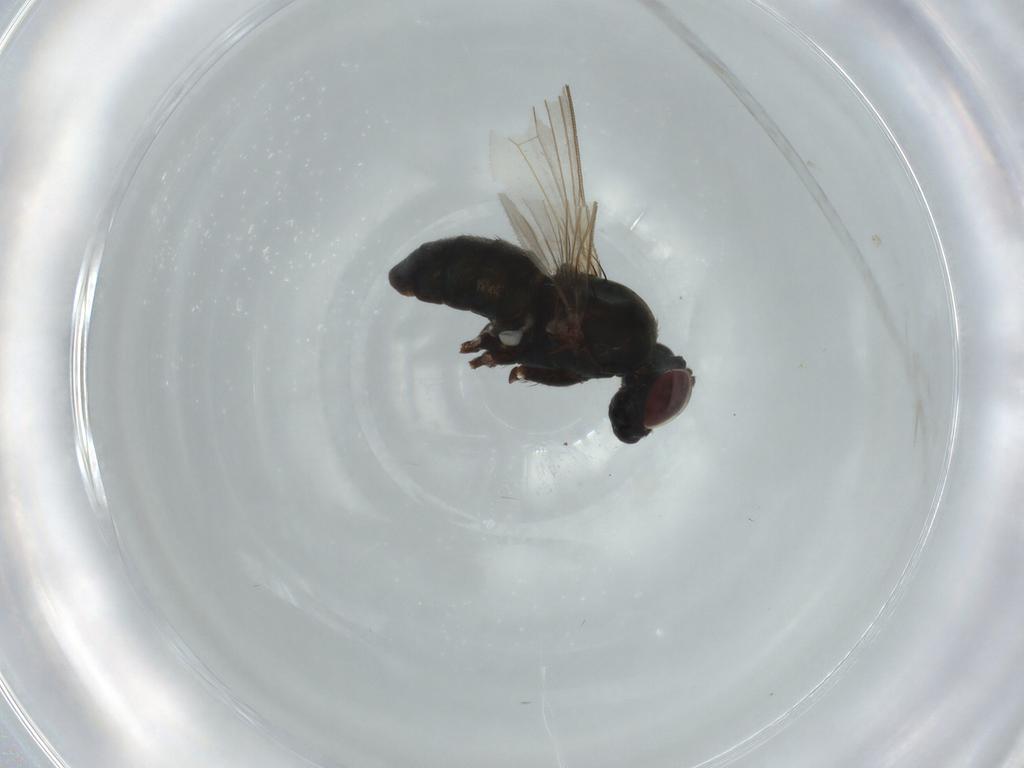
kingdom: Animalia
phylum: Arthropoda
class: Insecta
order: Diptera
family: Dolichopodidae
